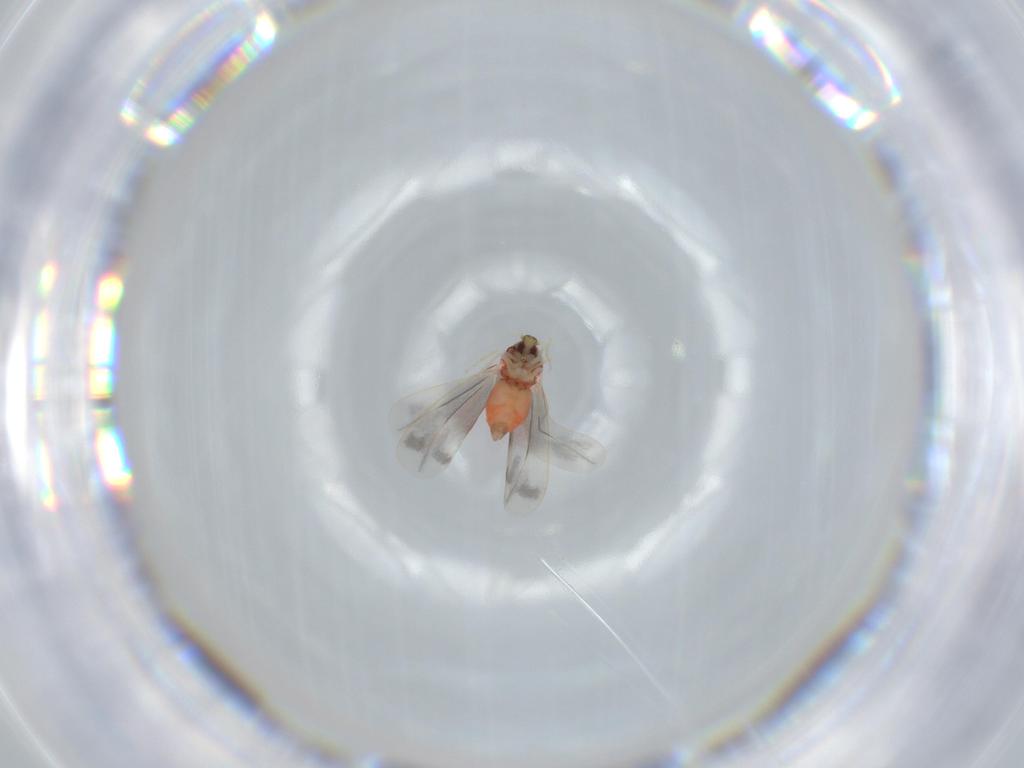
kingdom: Animalia
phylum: Arthropoda
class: Insecta
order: Hemiptera
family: Aleyrodidae
